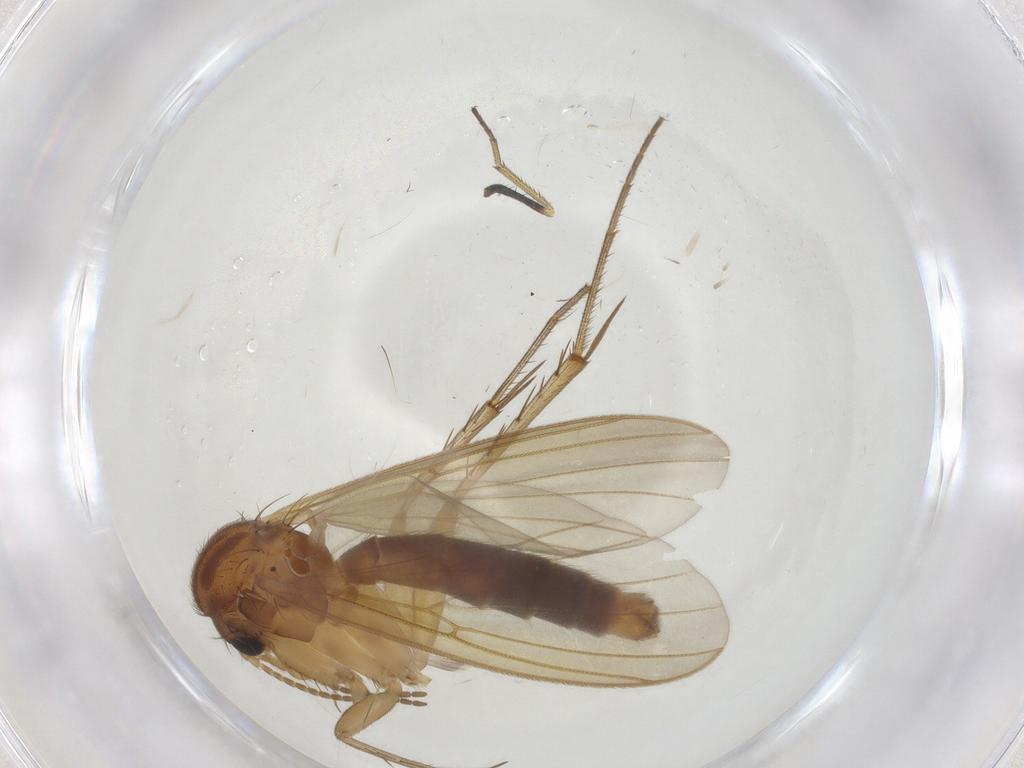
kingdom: Animalia
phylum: Arthropoda
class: Insecta
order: Diptera
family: Dolichopodidae
